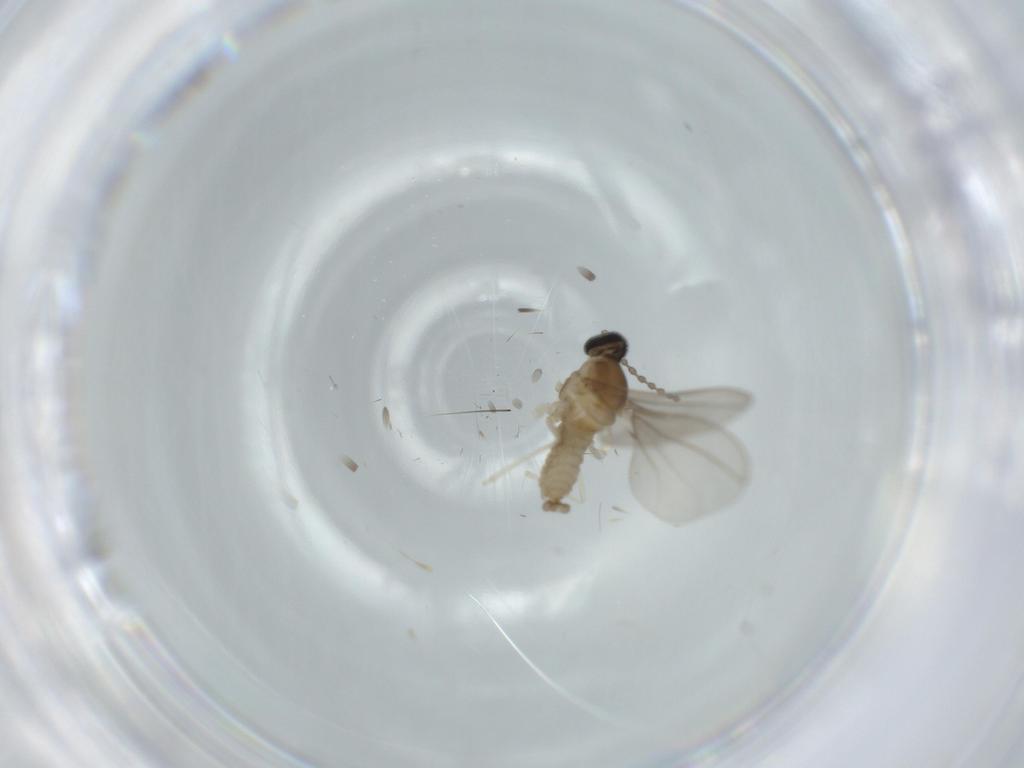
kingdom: Animalia
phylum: Arthropoda
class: Insecta
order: Diptera
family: Cecidomyiidae
